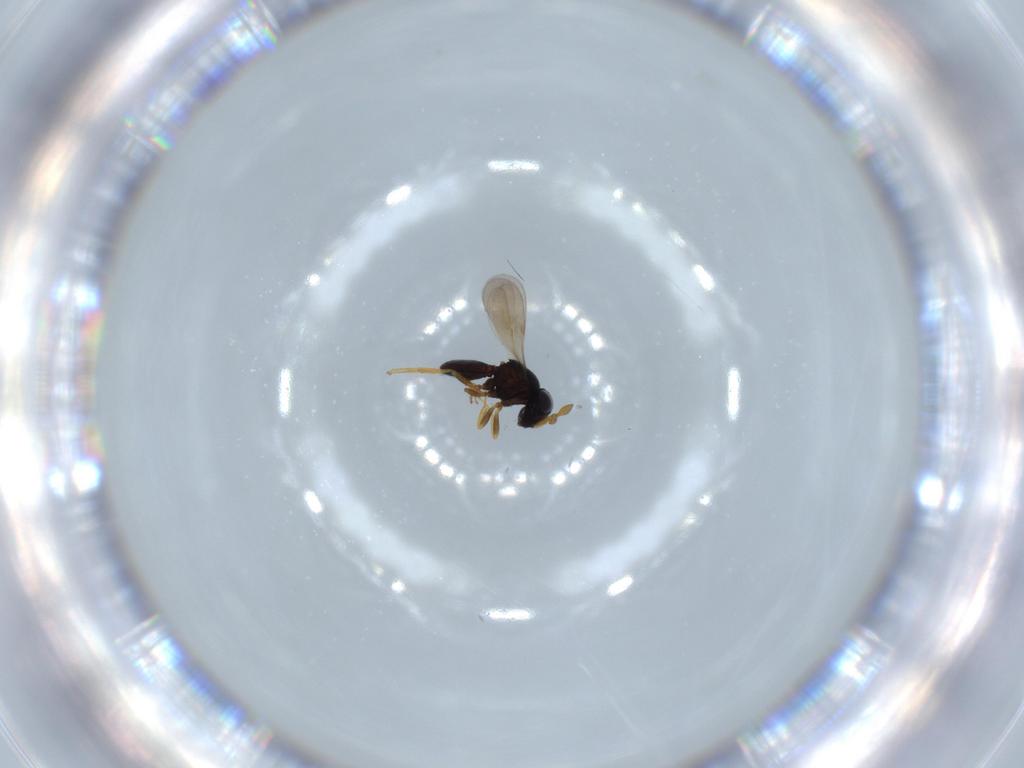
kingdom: Animalia
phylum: Arthropoda
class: Insecta
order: Hymenoptera
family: Scelionidae
